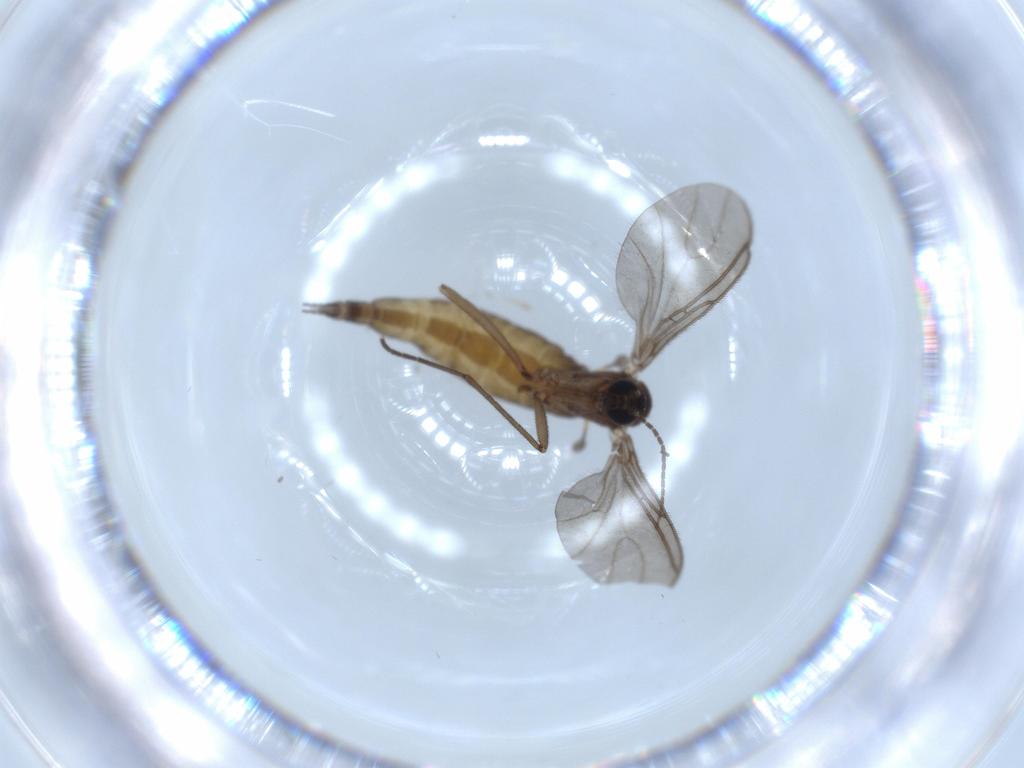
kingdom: Animalia
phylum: Arthropoda
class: Insecta
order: Diptera
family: Sciaridae
